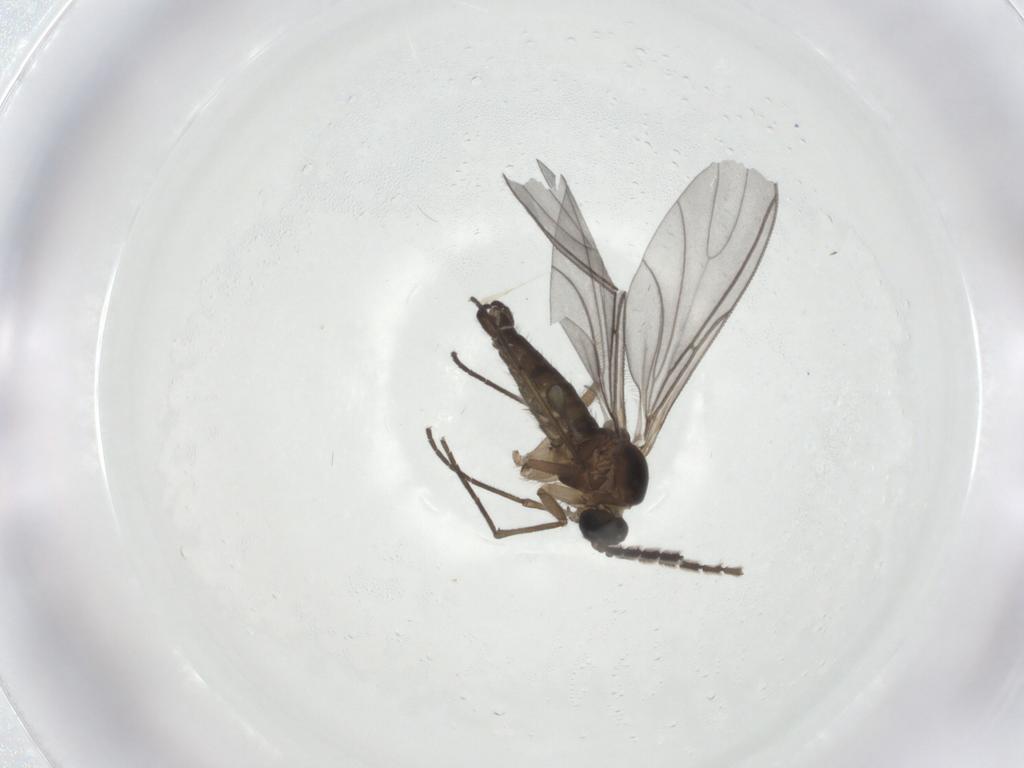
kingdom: Animalia
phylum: Arthropoda
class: Insecta
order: Diptera
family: Sciaridae
